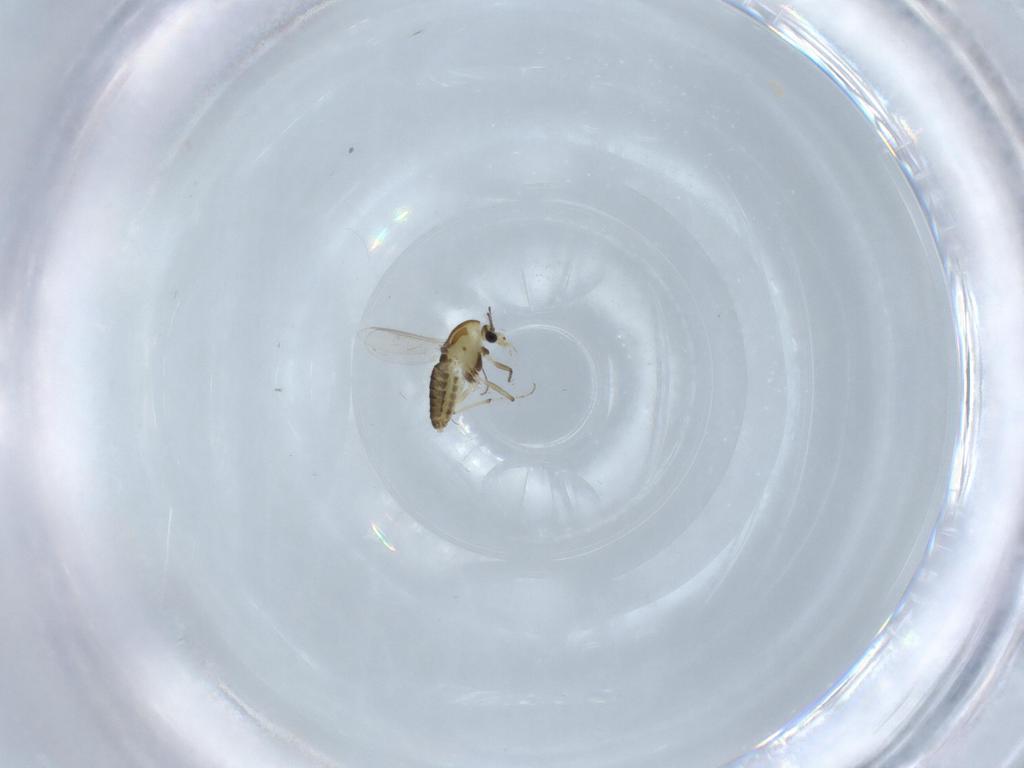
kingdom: Animalia
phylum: Arthropoda
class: Insecta
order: Diptera
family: Chironomidae
